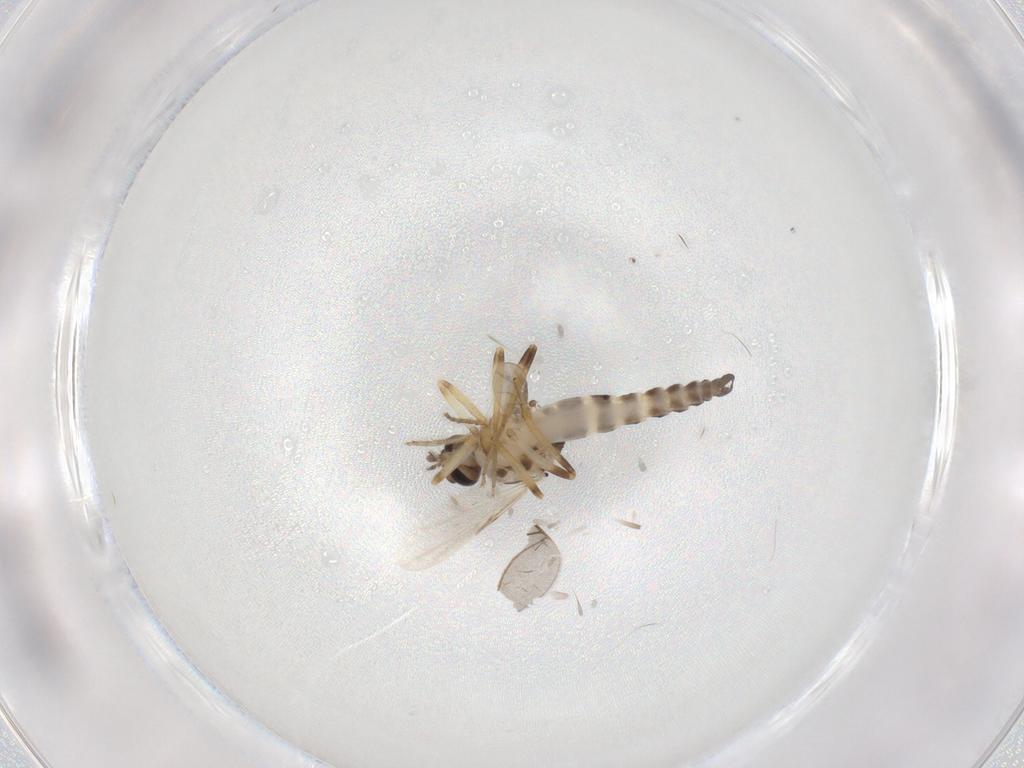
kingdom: Animalia
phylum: Arthropoda
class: Insecta
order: Diptera
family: Ceratopogonidae
